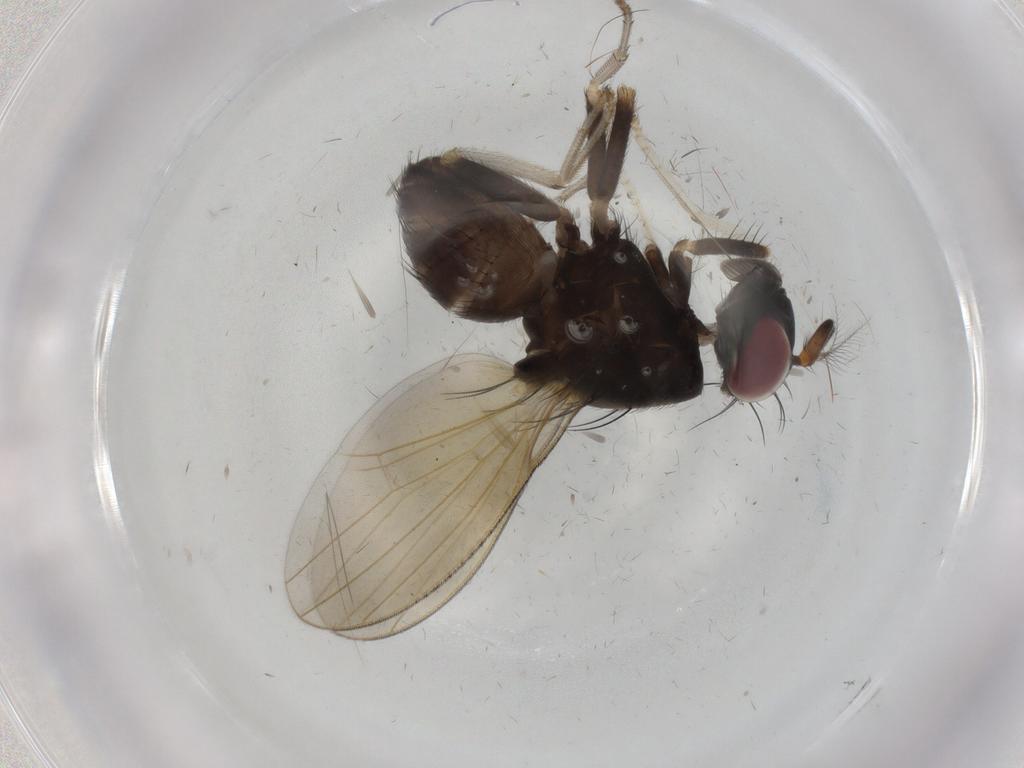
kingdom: Animalia
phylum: Arthropoda
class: Insecta
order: Diptera
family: Lauxaniidae
